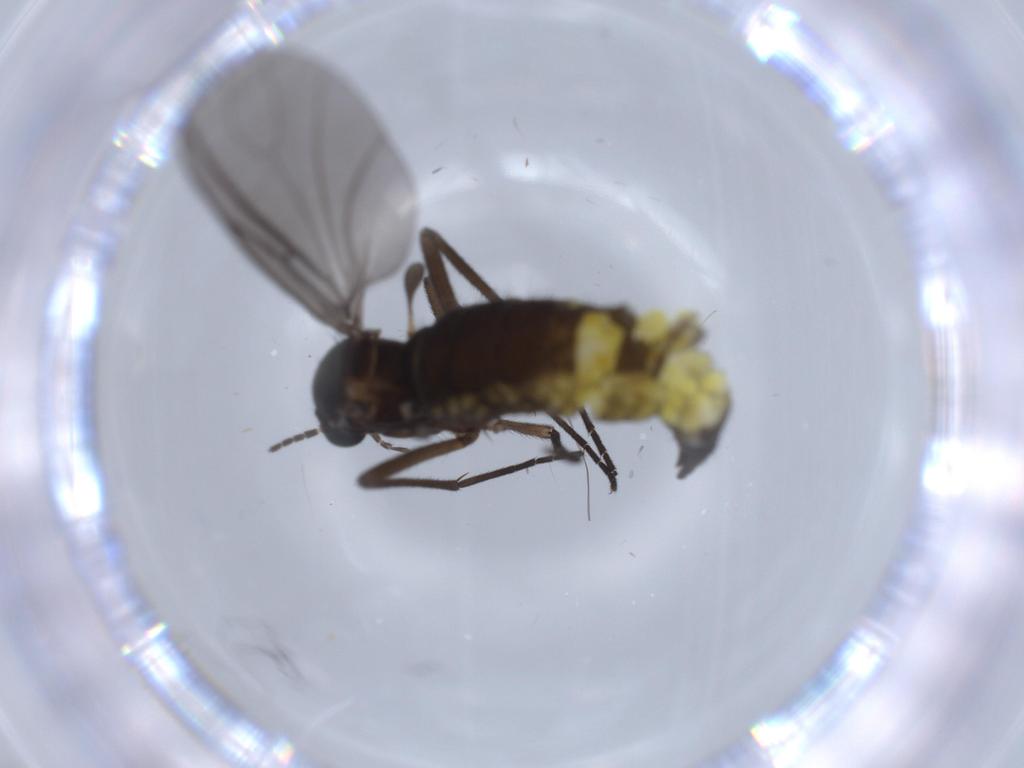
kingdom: Animalia
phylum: Arthropoda
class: Insecta
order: Diptera
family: Sciaridae
